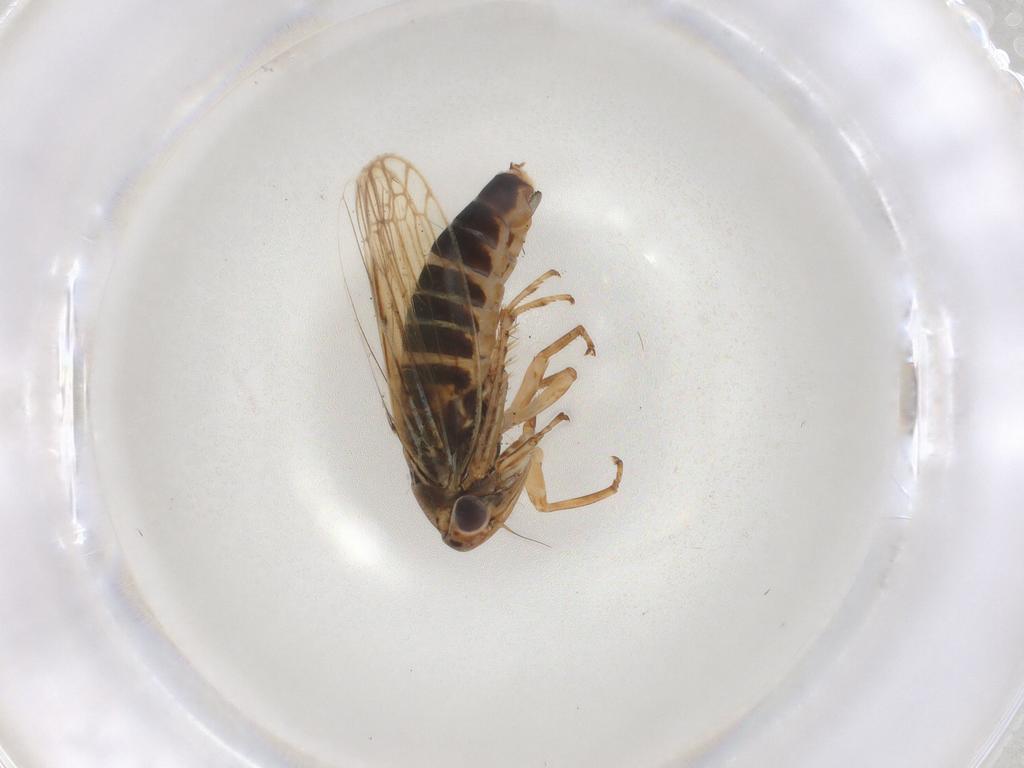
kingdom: Animalia
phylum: Arthropoda
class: Insecta
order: Hemiptera
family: Cicadellidae
